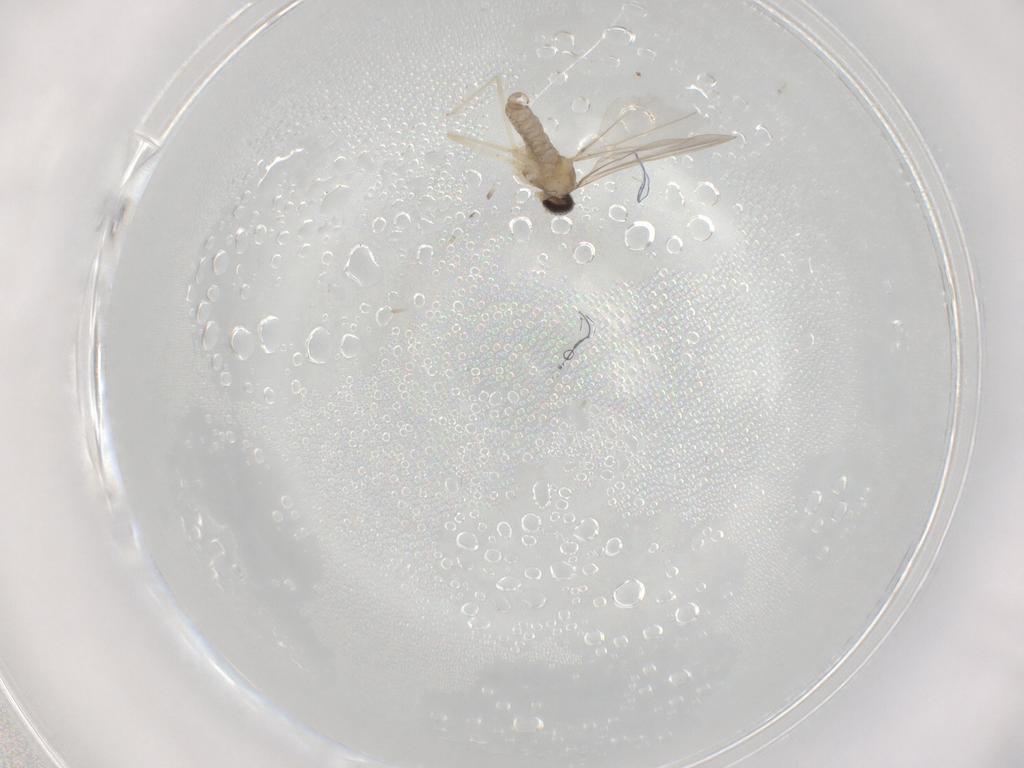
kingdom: Animalia
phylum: Arthropoda
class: Insecta
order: Diptera
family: Cecidomyiidae
